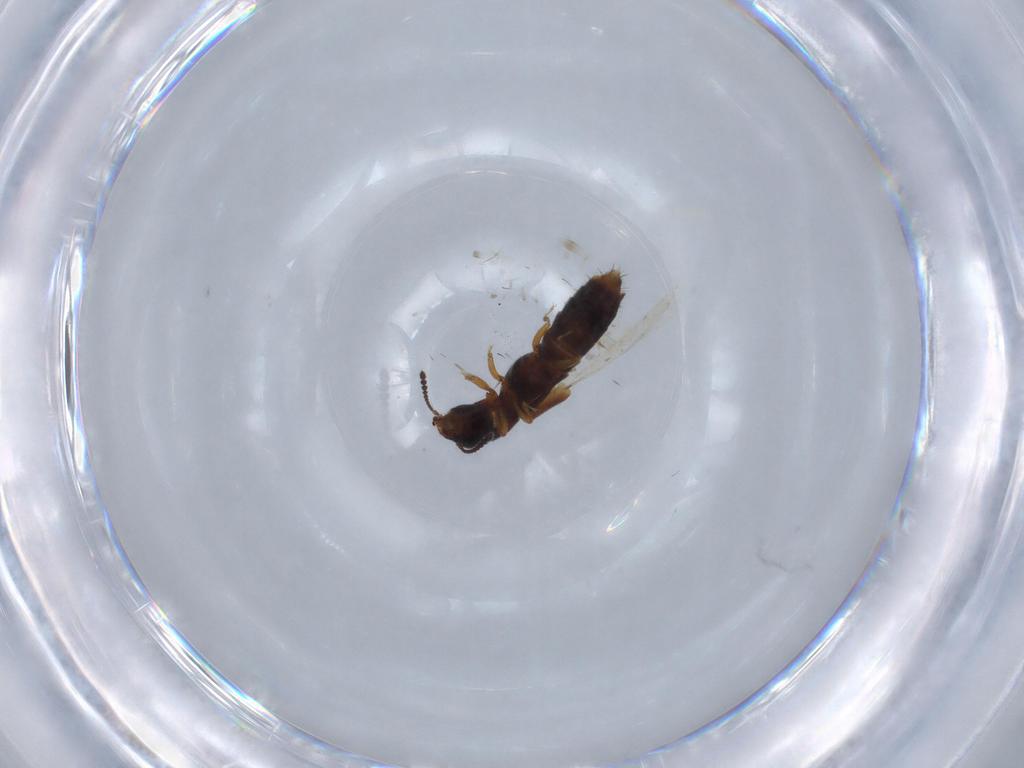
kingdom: Animalia
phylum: Arthropoda
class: Insecta
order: Coleoptera
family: Staphylinidae
